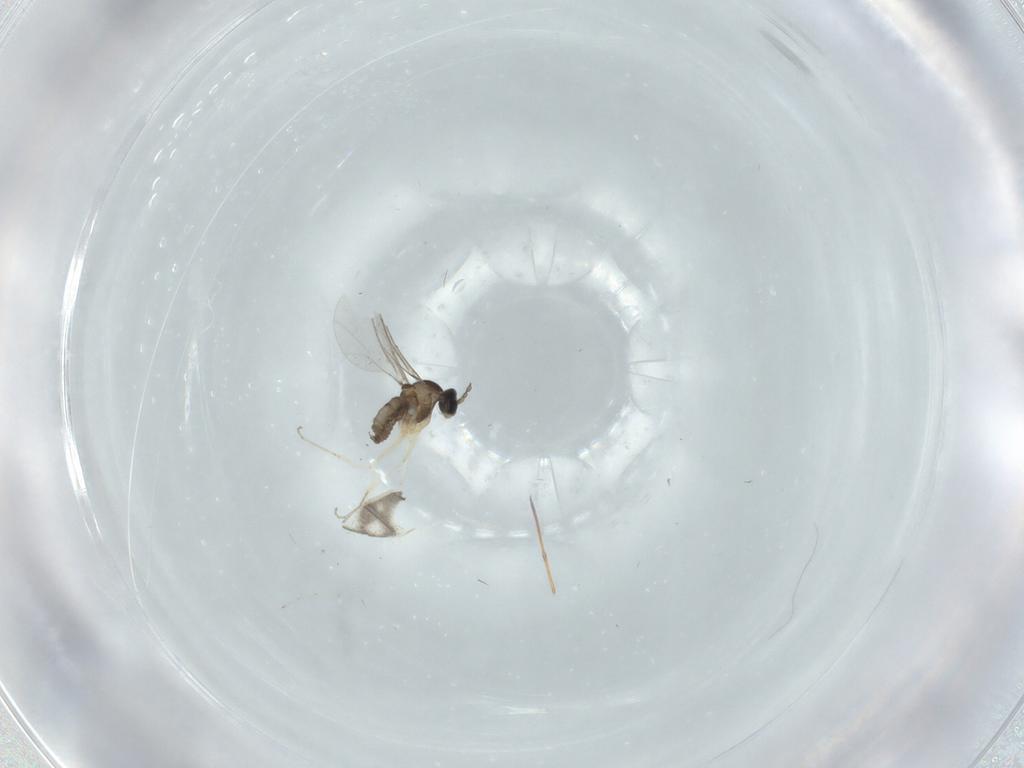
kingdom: Animalia
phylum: Arthropoda
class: Insecta
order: Diptera
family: Cecidomyiidae
